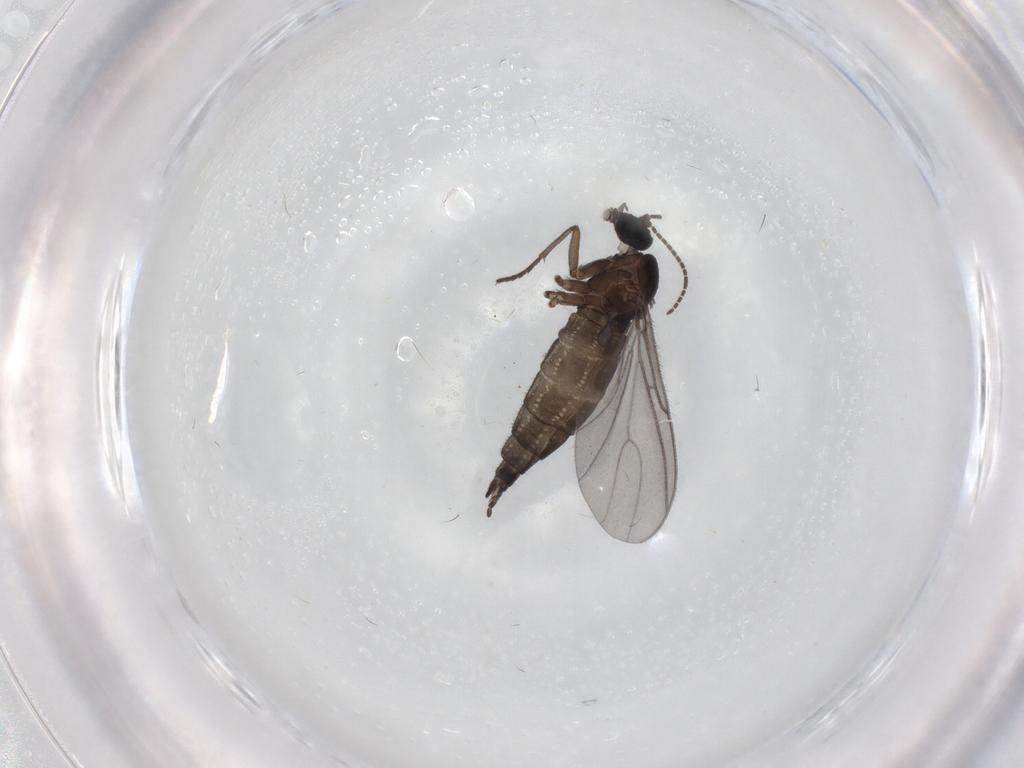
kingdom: Animalia
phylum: Arthropoda
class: Insecta
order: Diptera
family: Sciaridae
